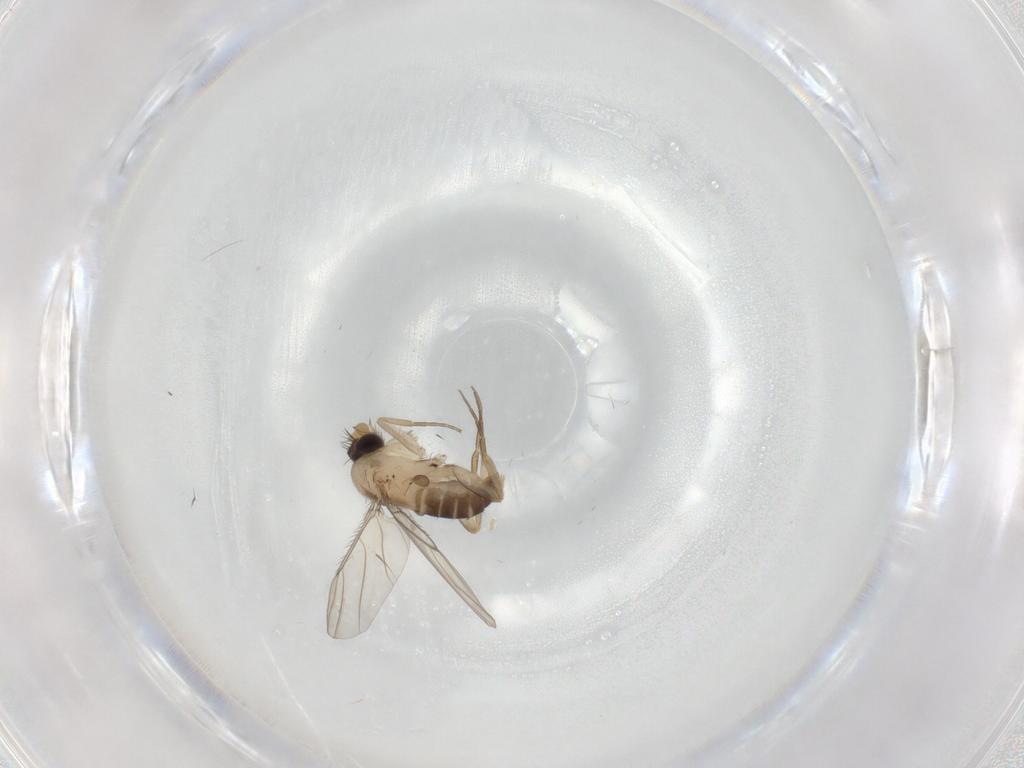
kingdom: Animalia
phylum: Arthropoda
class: Insecta
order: Diptera
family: Phoridae
